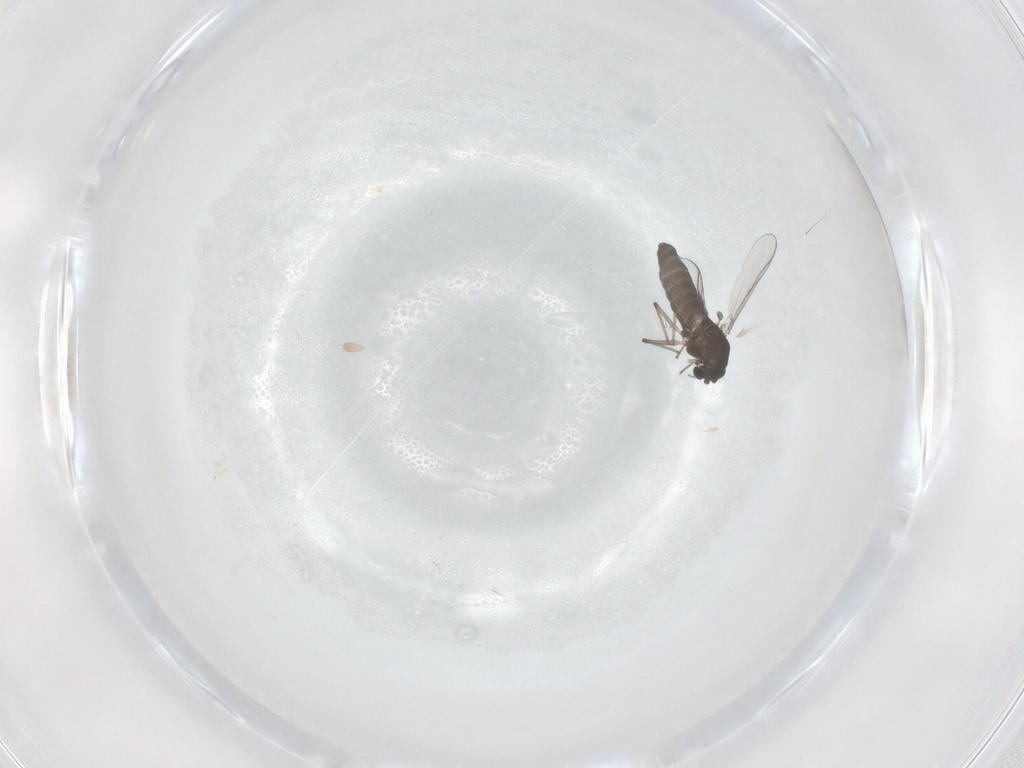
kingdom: Animalia
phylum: Arthropoda
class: Insecta
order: Diptera
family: Chironomidae
